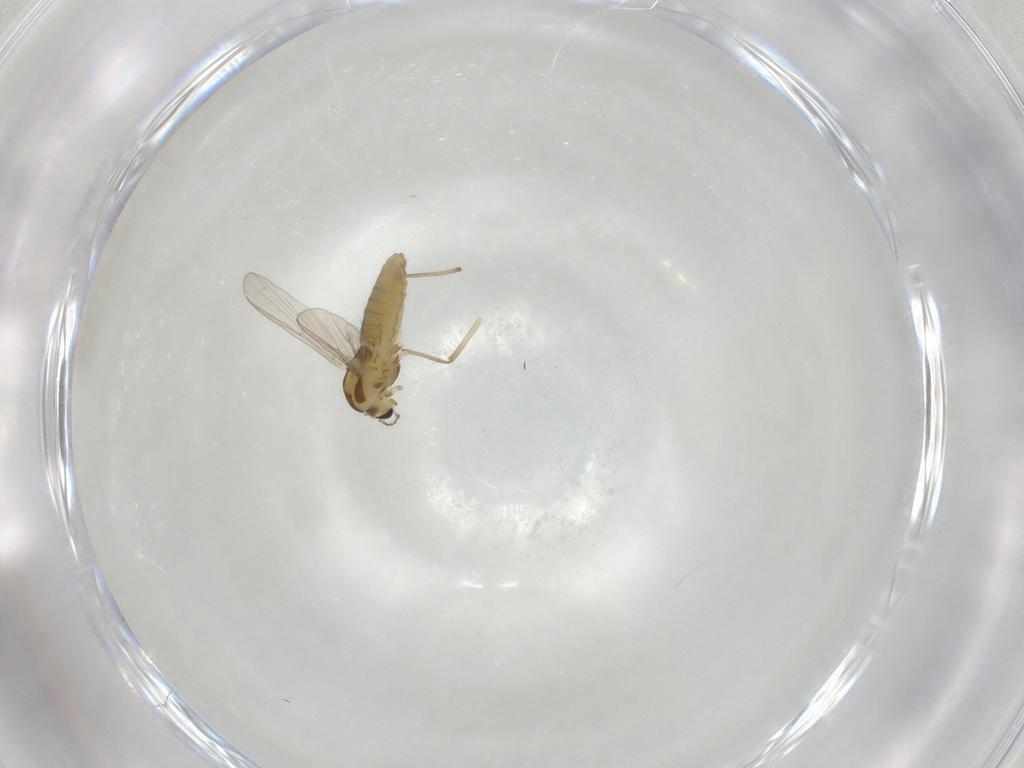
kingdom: Animalia
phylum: Arthropoda
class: Insecta
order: Diptera
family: Chironomidae
